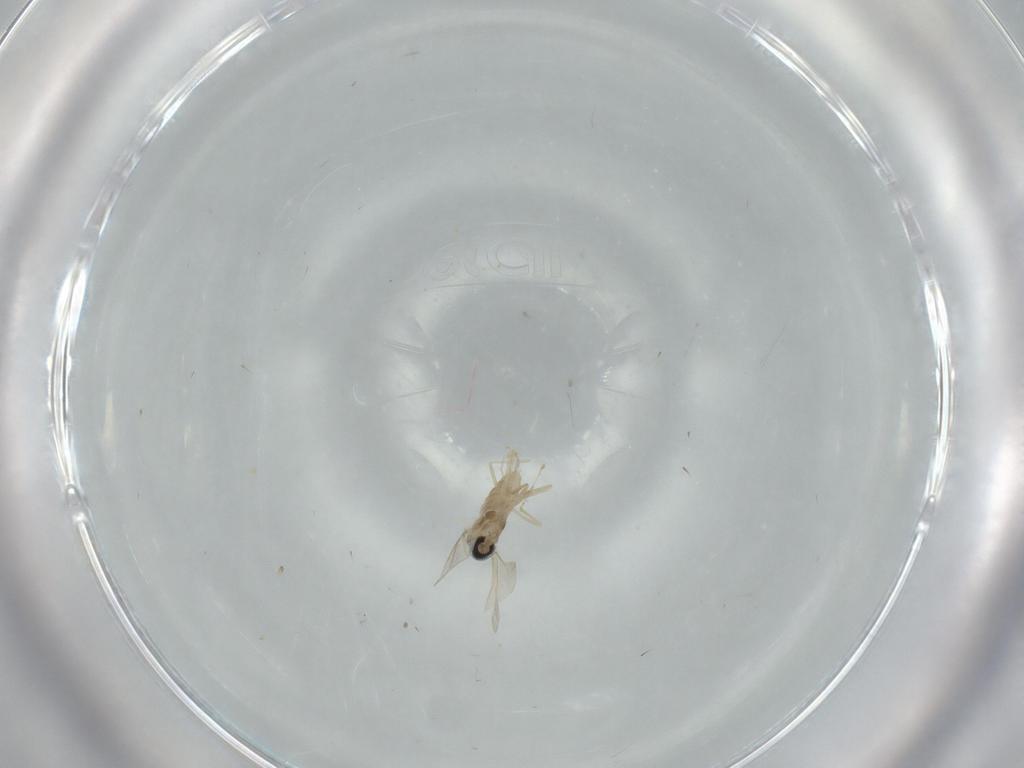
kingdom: Animalia
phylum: Arthropoda
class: Insecta
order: Diptera
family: Cecidomyiidae
